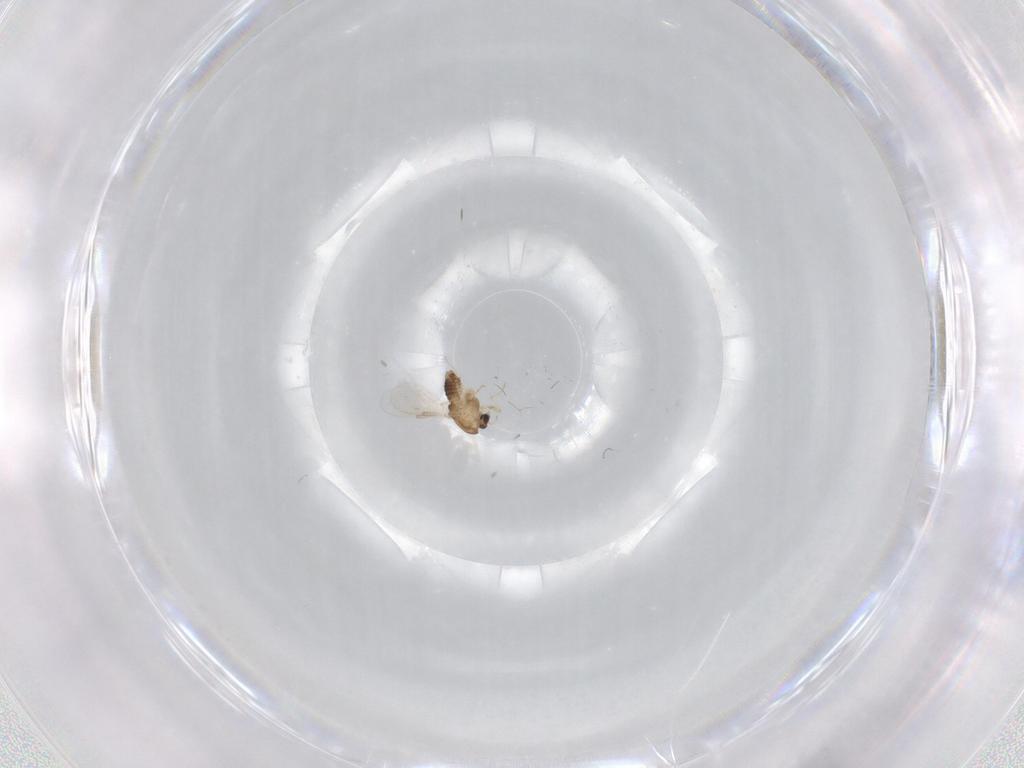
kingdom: Animalia
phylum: Arthropoda
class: Insecta
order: Diptera
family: Chironomidae
